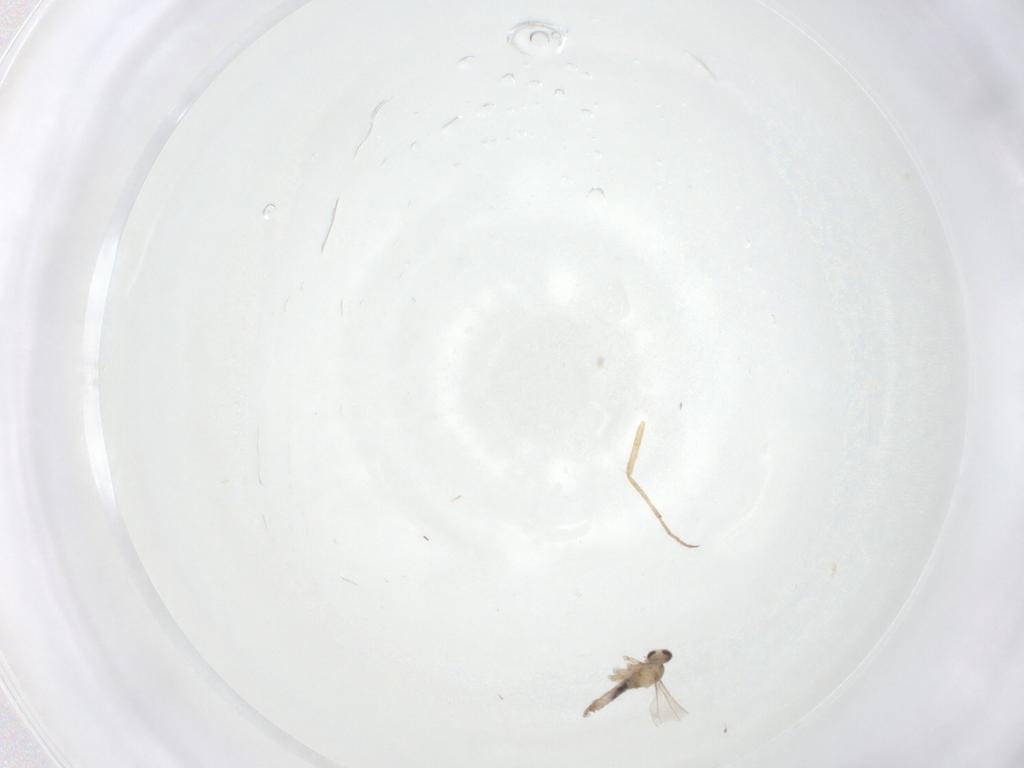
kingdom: Animalia
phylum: Arthropoda
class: Insecta
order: Diptera
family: Cecidomyiidae
